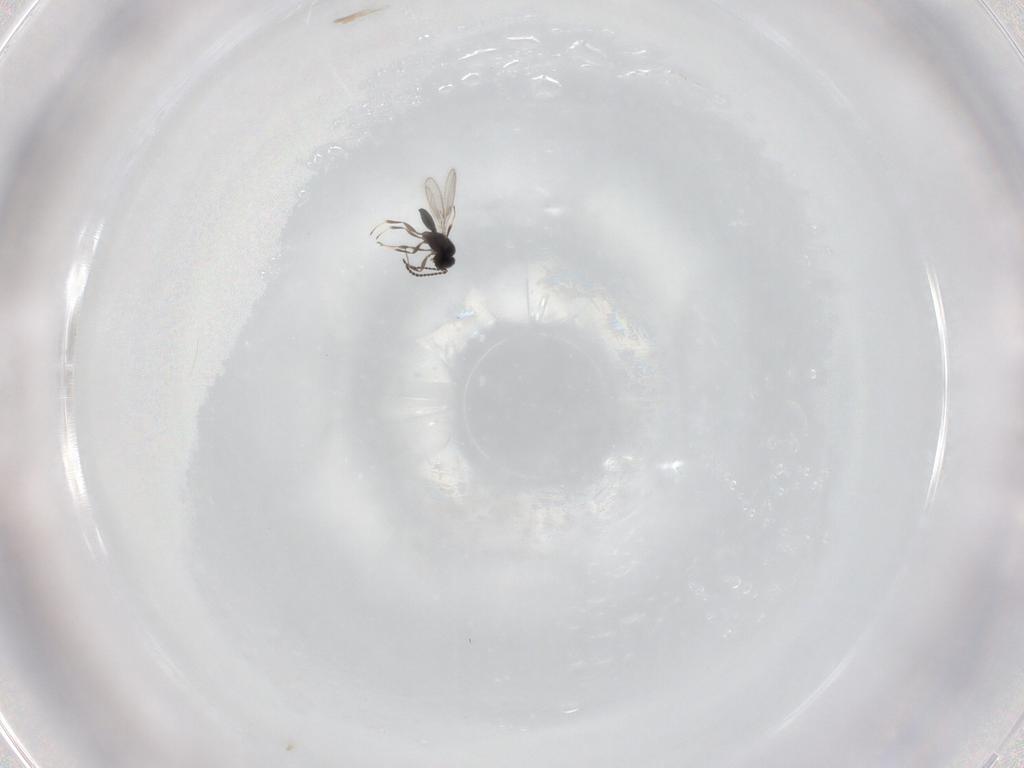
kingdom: Animalia
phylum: Arthropoda
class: Insecta
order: Hymenoptera
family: Scelionidae
